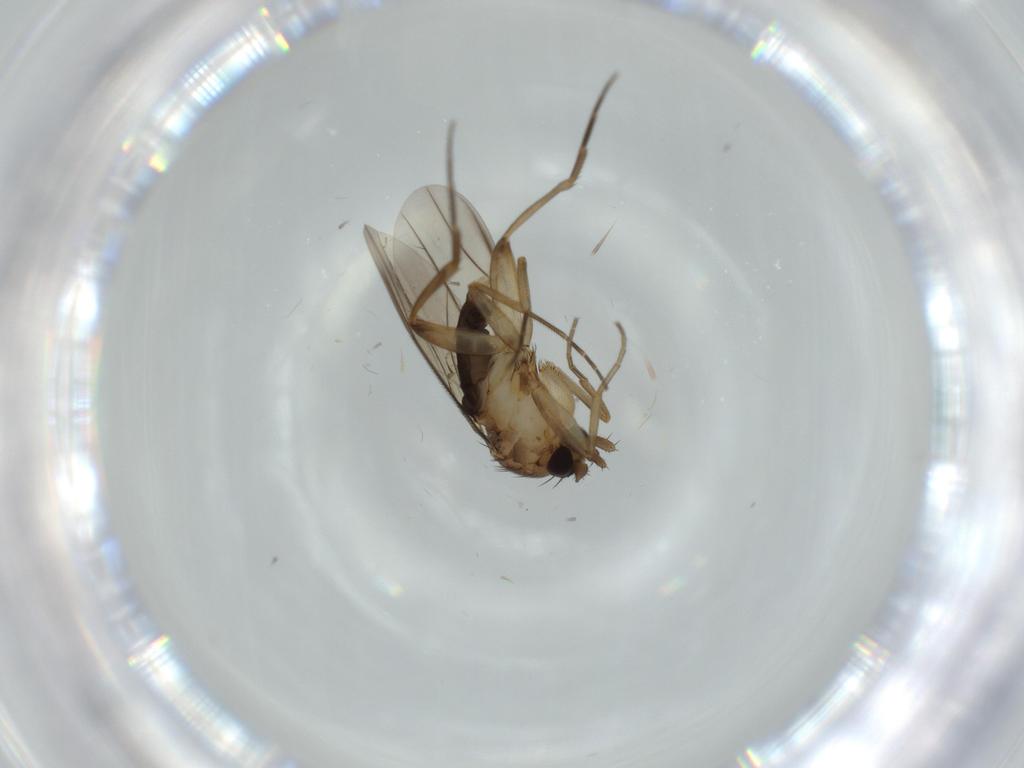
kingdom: Animalia
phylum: Arthropoda
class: Insecta
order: Diptera
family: Phoridae
